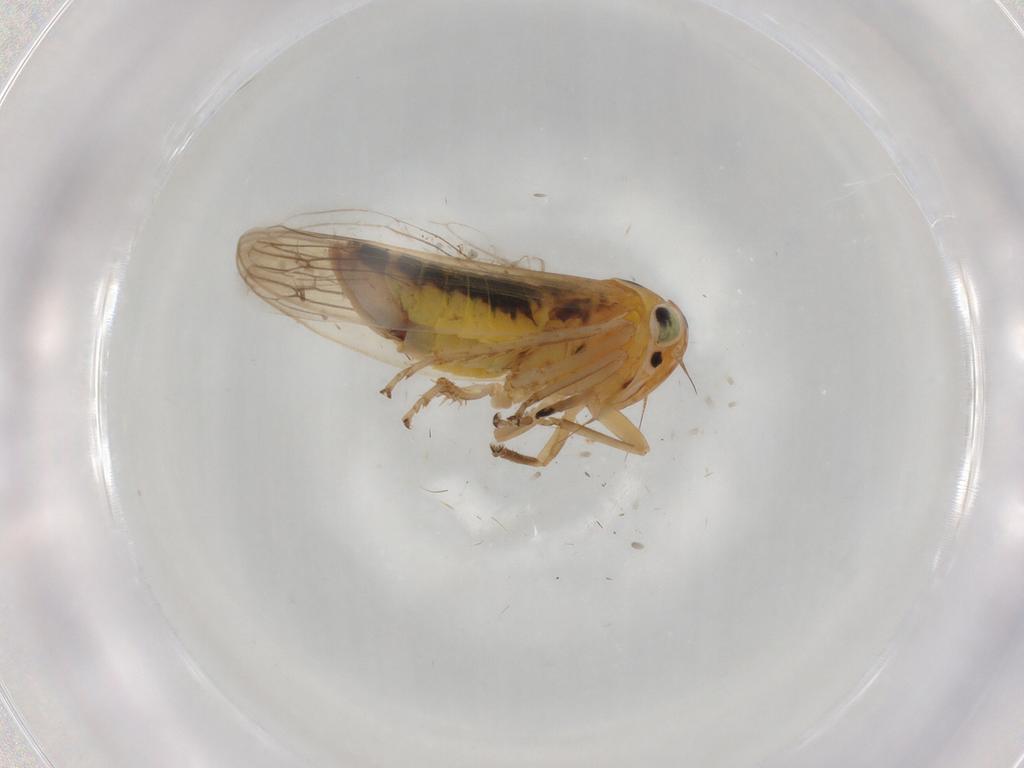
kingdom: Animalia
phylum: Arthropoda
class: Insecta
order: Hemiptera
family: Cicadellidae
